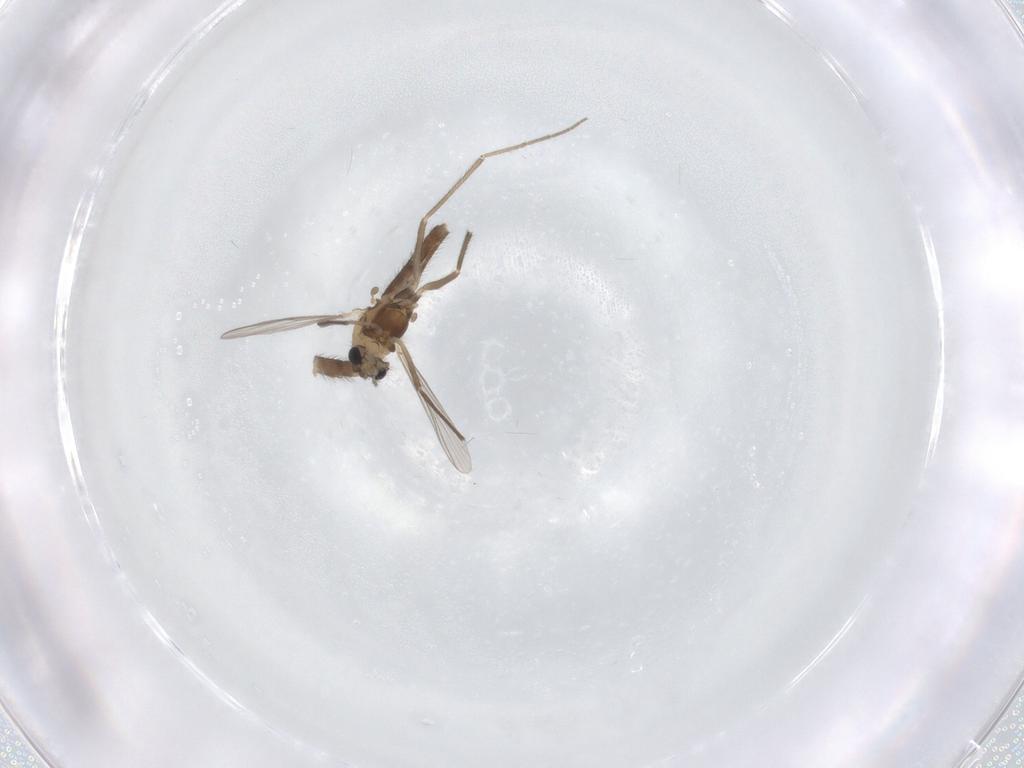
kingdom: Animalia
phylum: Arthropoda
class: Insecta
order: Diptera
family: Chironomidae
